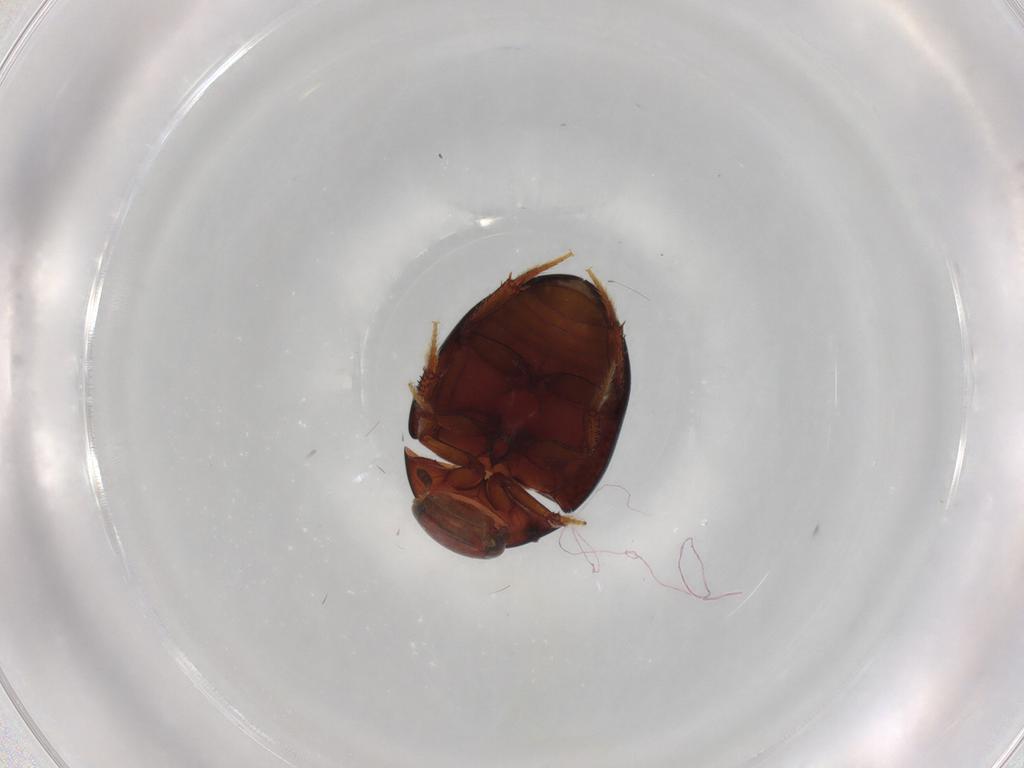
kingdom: Animalia
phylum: Arthropoda
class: Insecta
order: Coleoptera
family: Hydrophilidae
